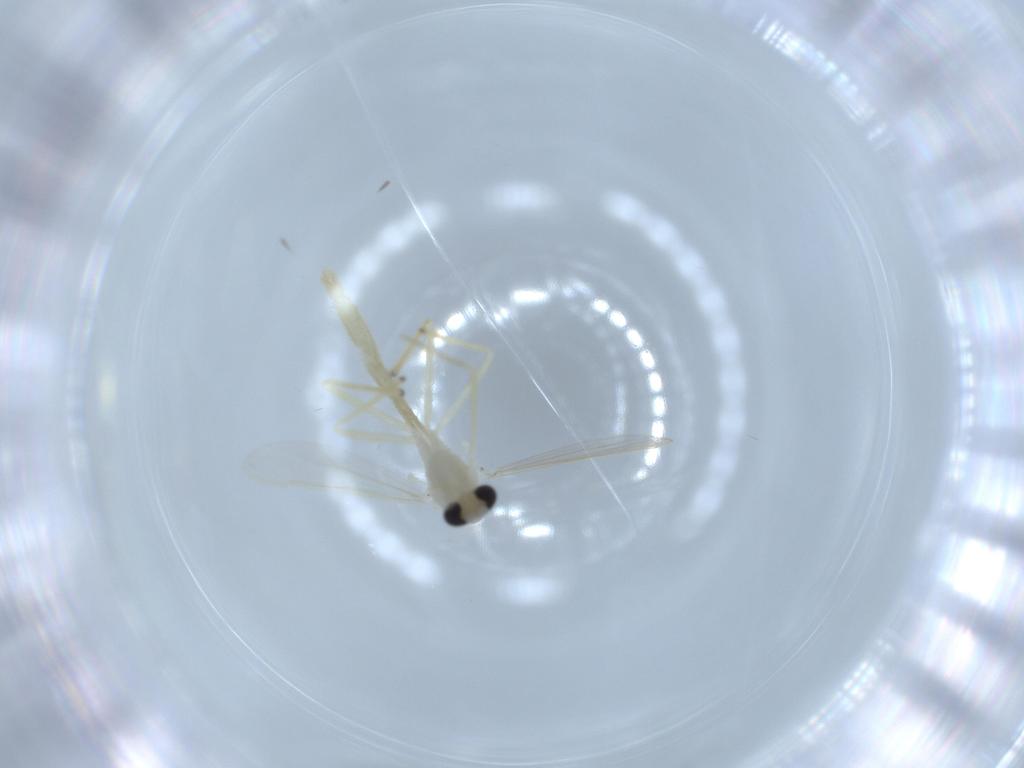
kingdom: Animalia
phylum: Arthropoda
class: Insecta
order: Diptera
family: Chironomidae
